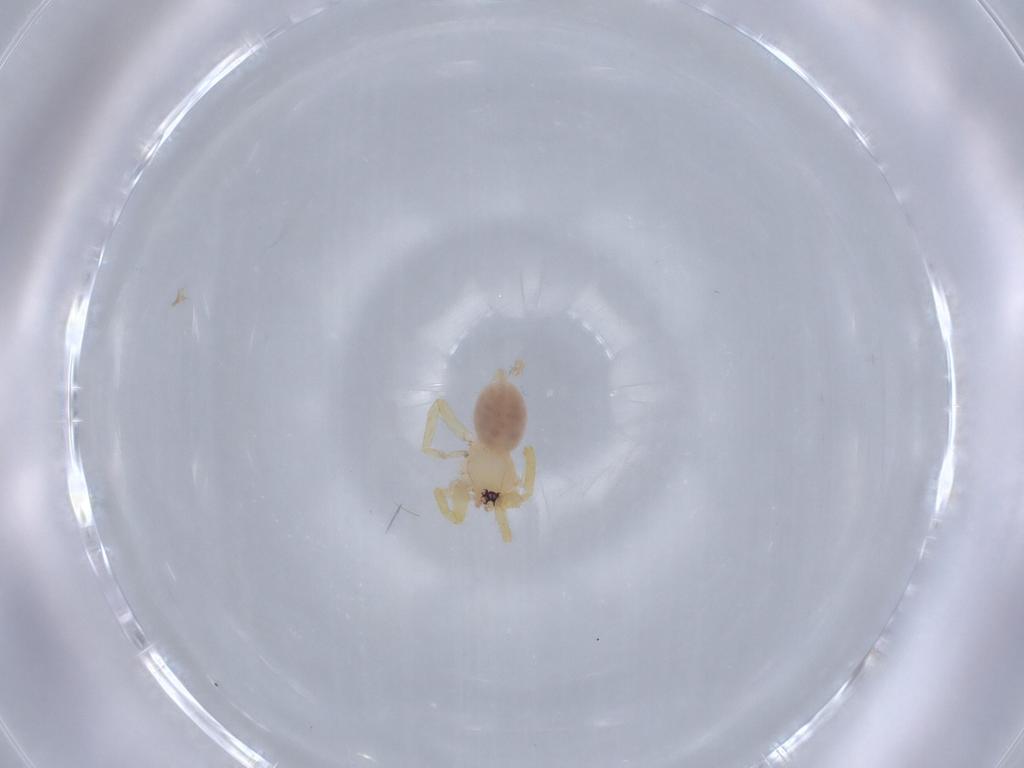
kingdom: Animalia
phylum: Arthropoda
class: Arachnida
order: Araneae
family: Oonopidae
